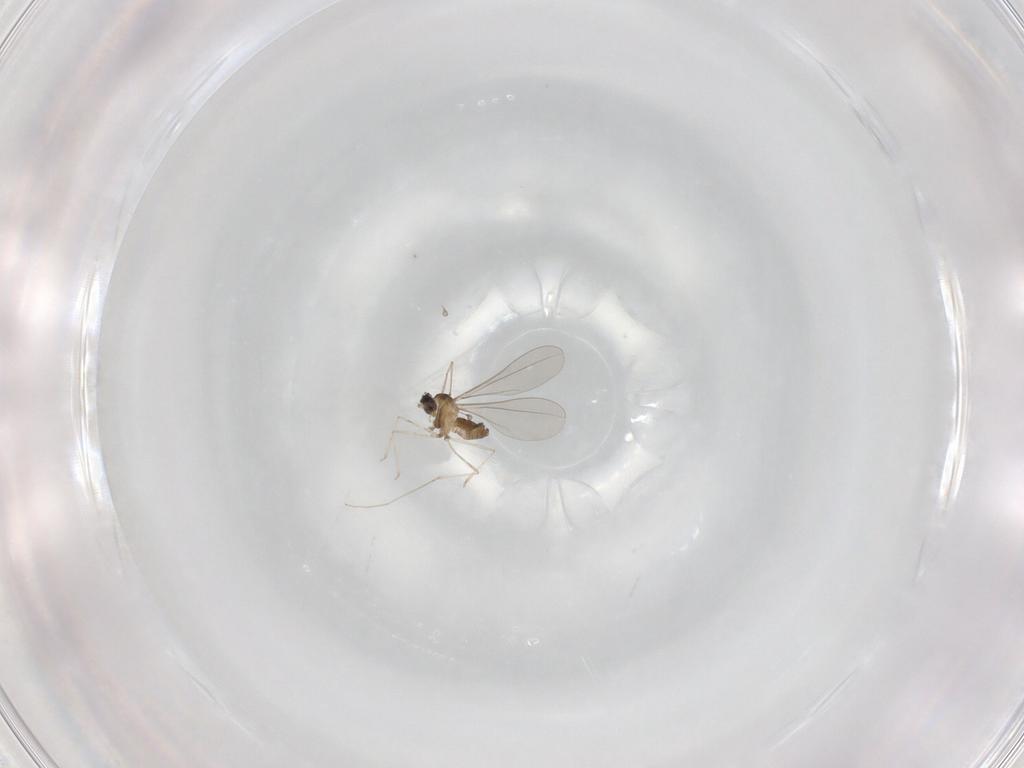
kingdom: Animalia
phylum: Arthropoda
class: Insecta
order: Diptera
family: Cecidomyiidae
